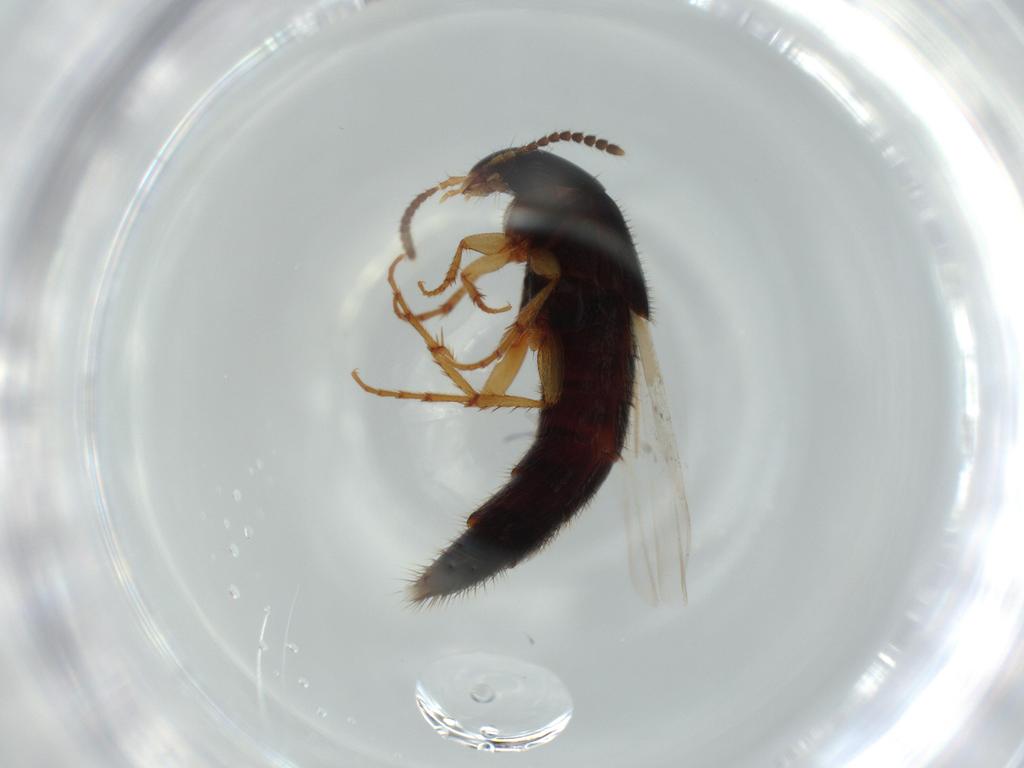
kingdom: Animalia
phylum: Arthropoda
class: Insecta
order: Coleoptera
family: Staphylinidae
